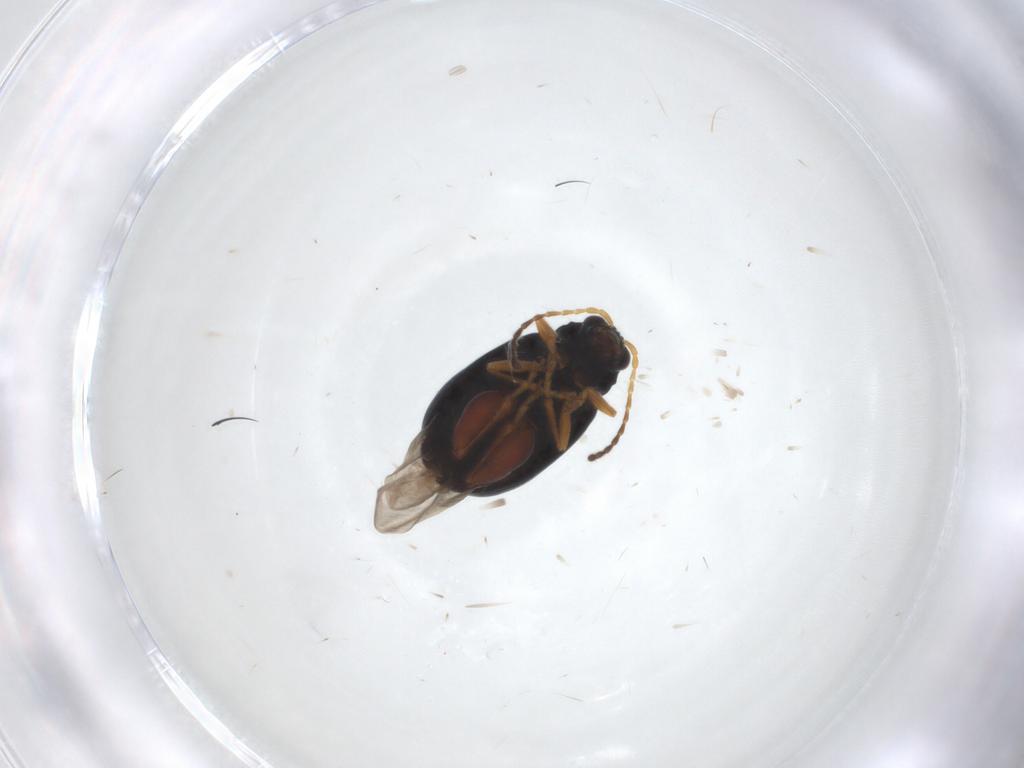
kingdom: Animalia
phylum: Arthropoda
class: Insecta
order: Coleoptera
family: Chrysomelidae
